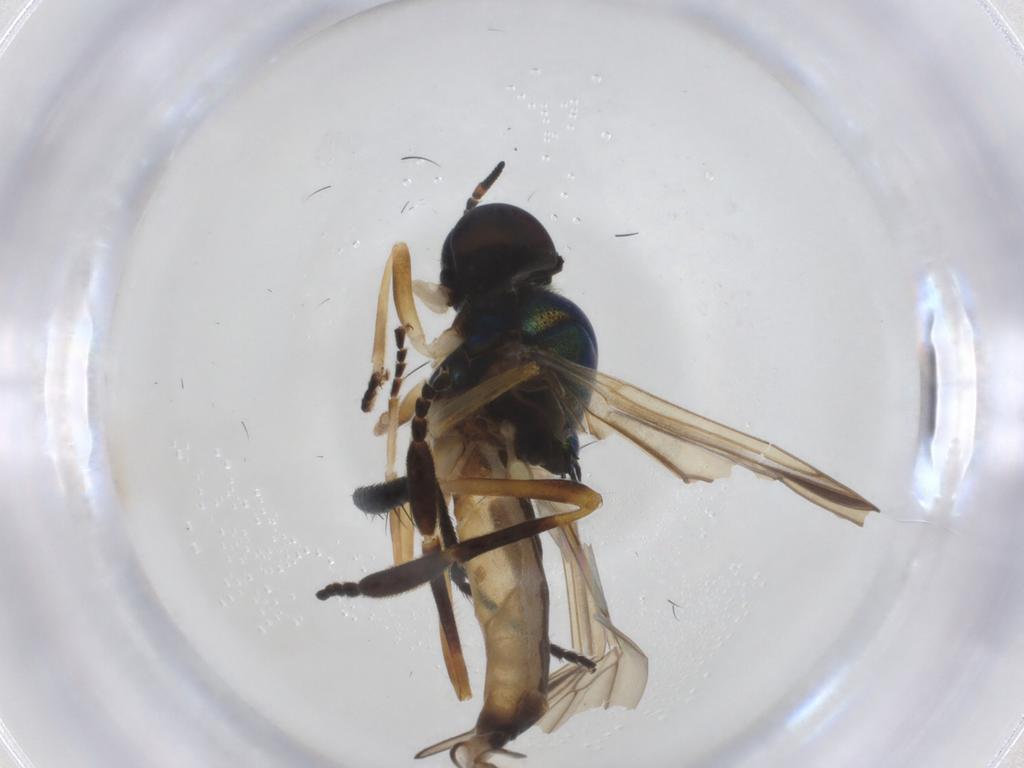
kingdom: Animalia
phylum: Arthropoda
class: Insecta
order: Diptera
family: Stratiomyidae
